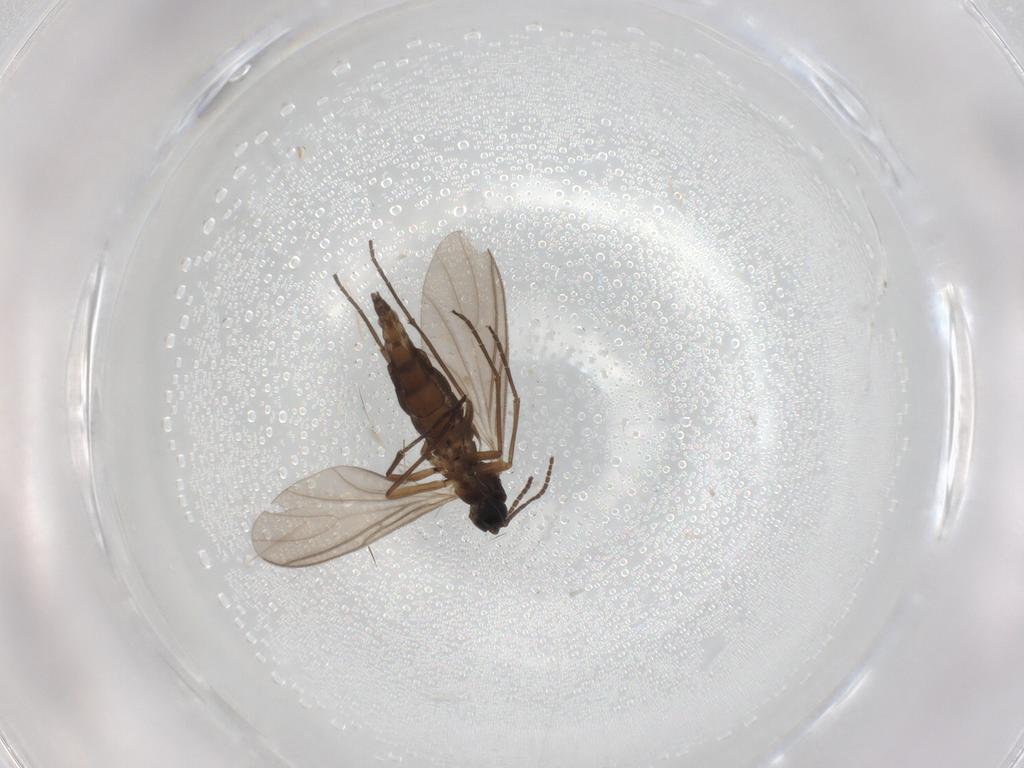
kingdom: Animalia
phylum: Arthropoda
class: Insecta
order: Diptera
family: Sciaridae
